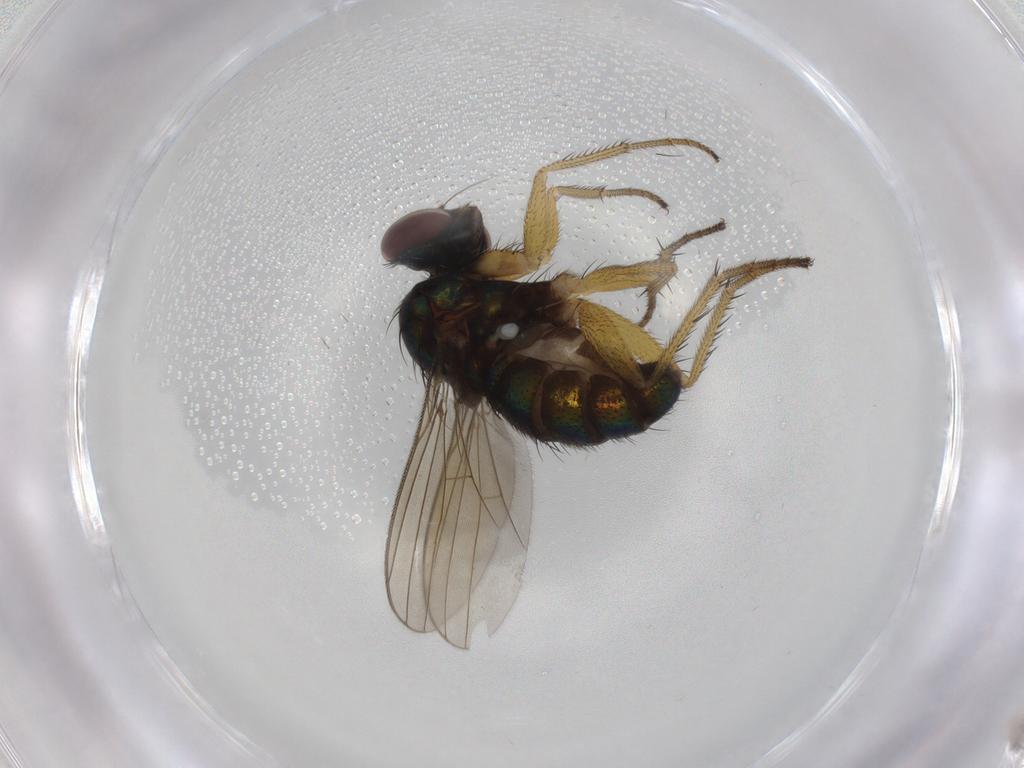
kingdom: Animalia
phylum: Arthropoda
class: Insecta
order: Diptera
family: Dolichopodidae
